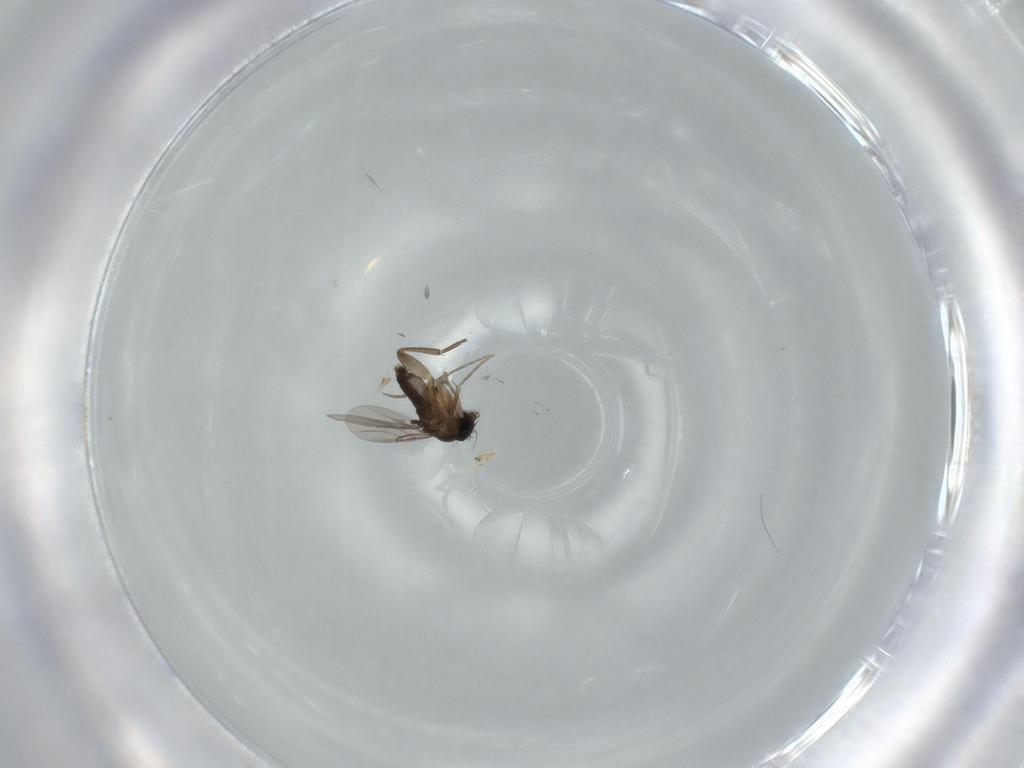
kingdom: Animalia
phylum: Arthropoda
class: Insecta
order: Diptera
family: Phoridae
